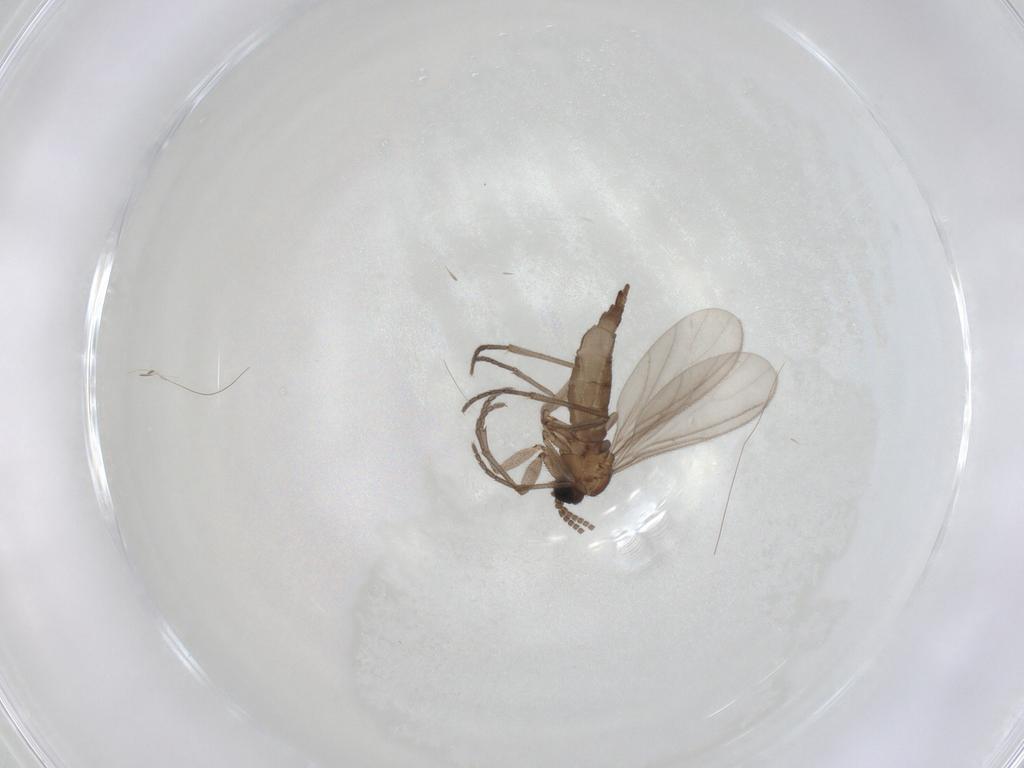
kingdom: Animalia
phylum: Arthropoda
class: Insecta
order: Diptera
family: Sciaridae
